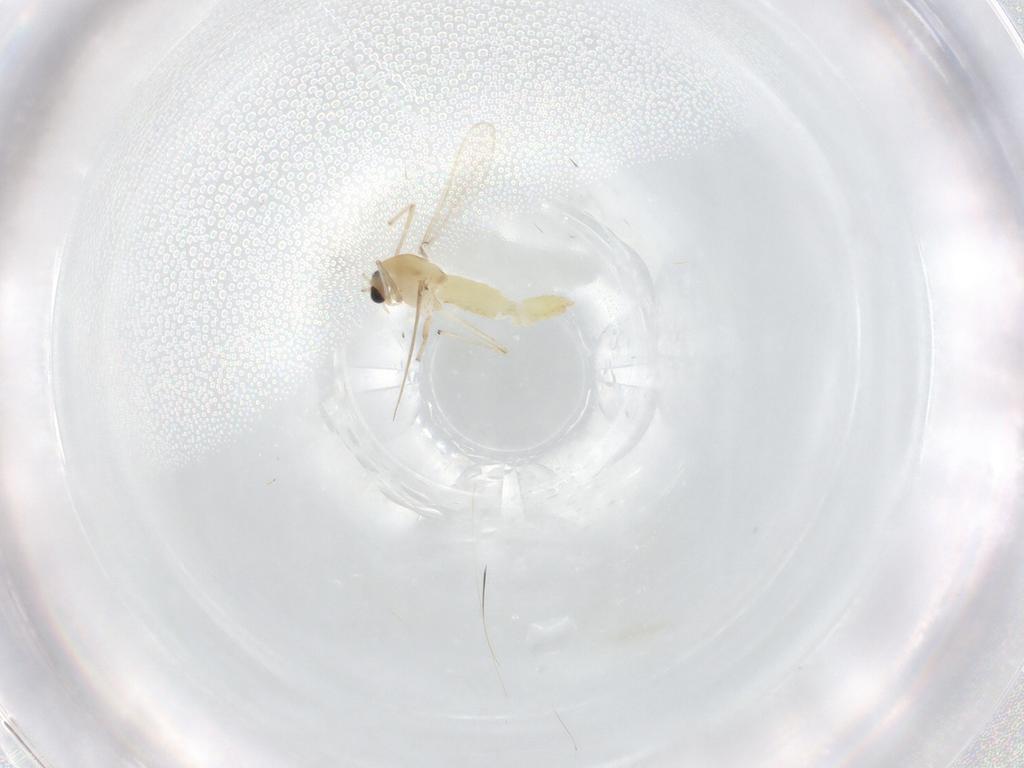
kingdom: Animalia
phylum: Arthropoda
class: Insecta
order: Diptera
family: Chironomidae
